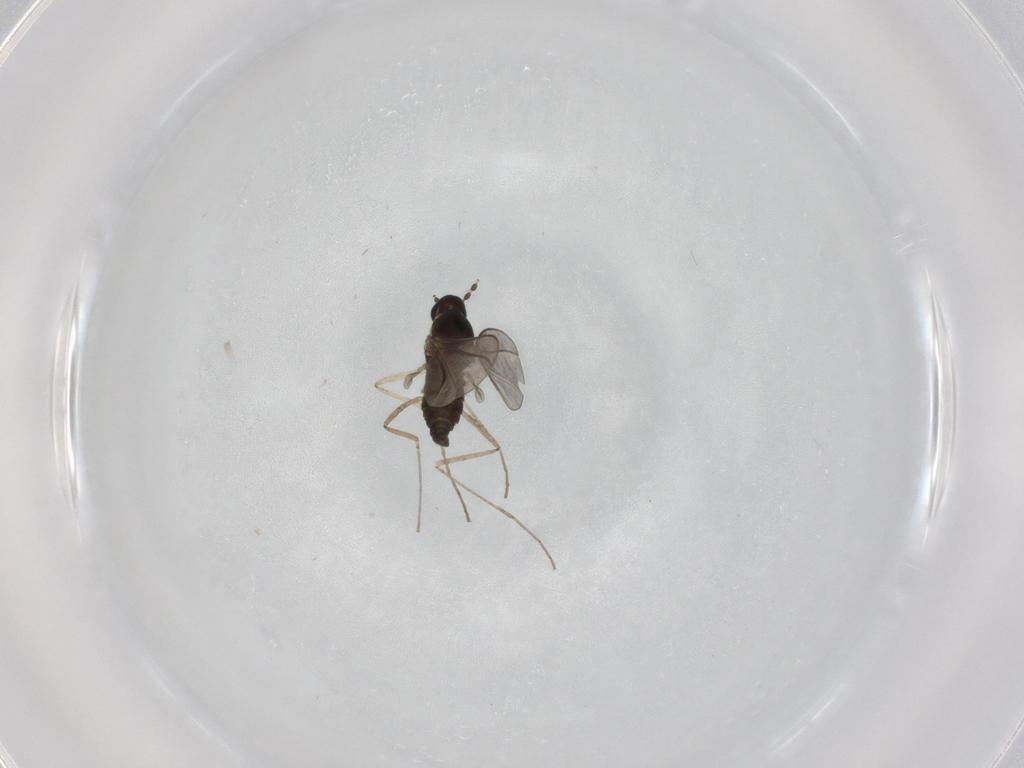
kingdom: Animalia
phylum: Arthropoda
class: Insecta
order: Diptera
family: Cecidomyiidae
